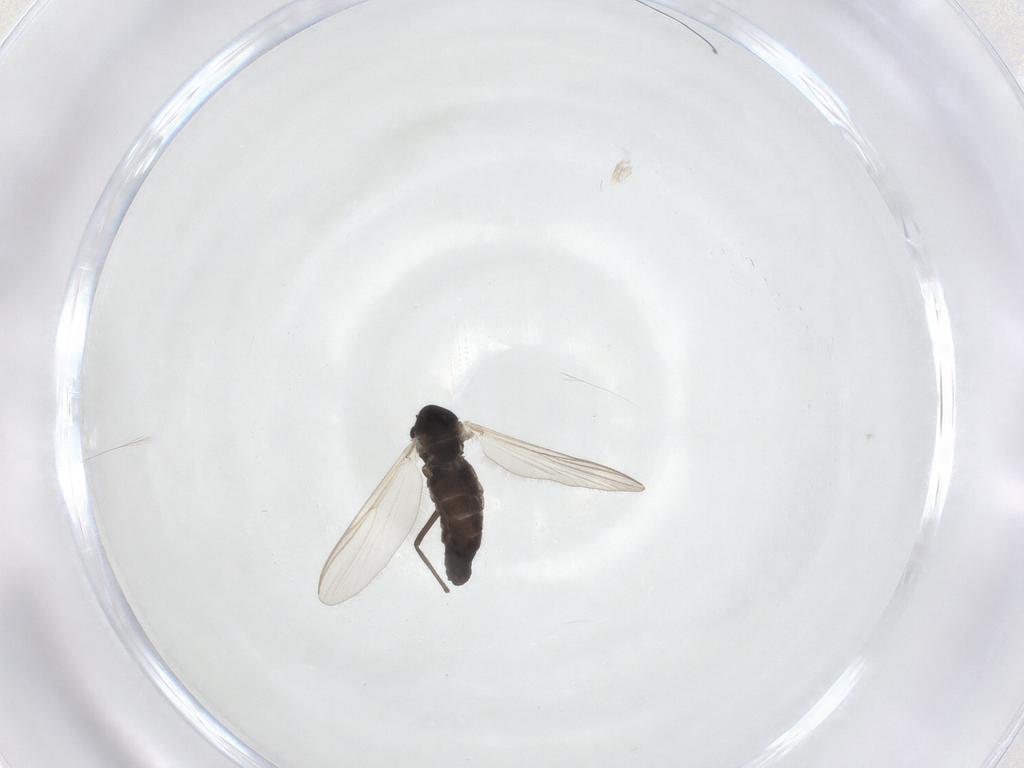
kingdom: Animalia
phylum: Arthropoda
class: Insecta
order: Diptera
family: Chironomidae
